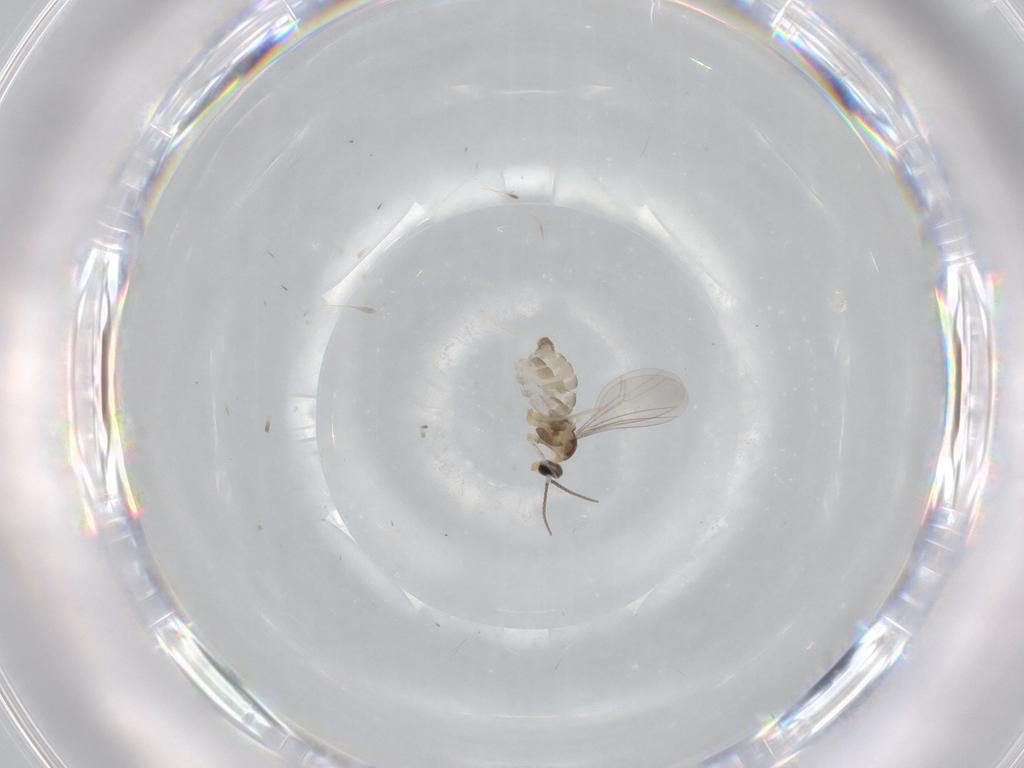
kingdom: Animalia
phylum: Arthropoda
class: Insecta
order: Diptera
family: Cecidomyiidae
